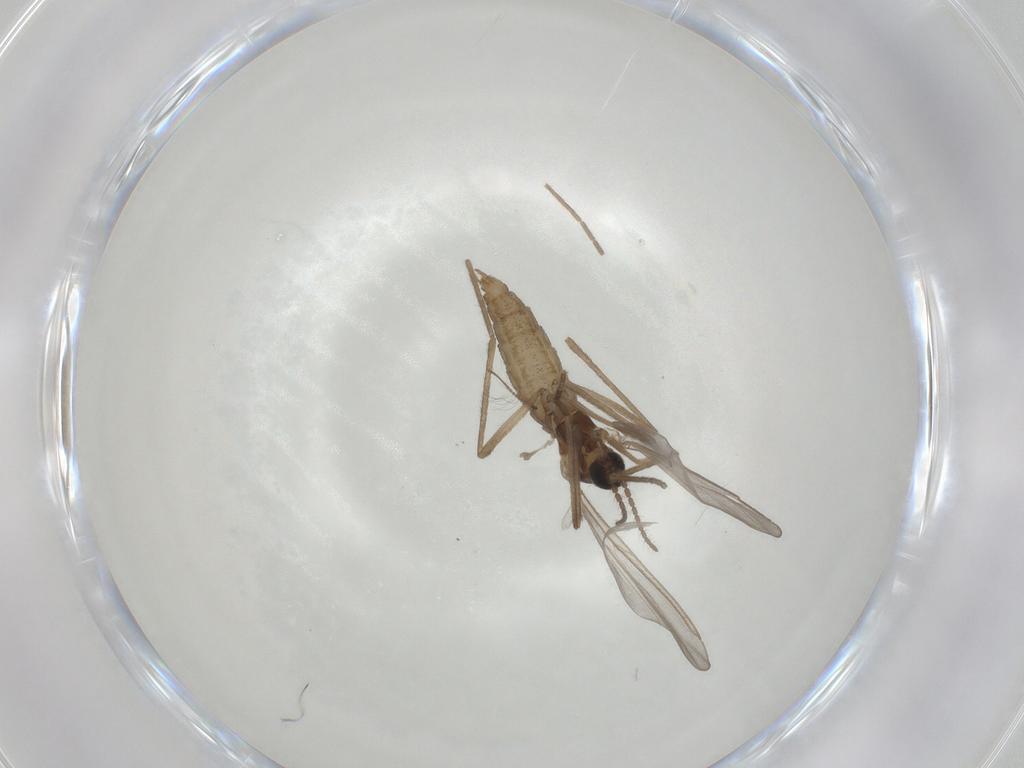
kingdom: Animalia
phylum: Arthropoda
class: Insecta
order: Diptera
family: Cecidomyiidae
